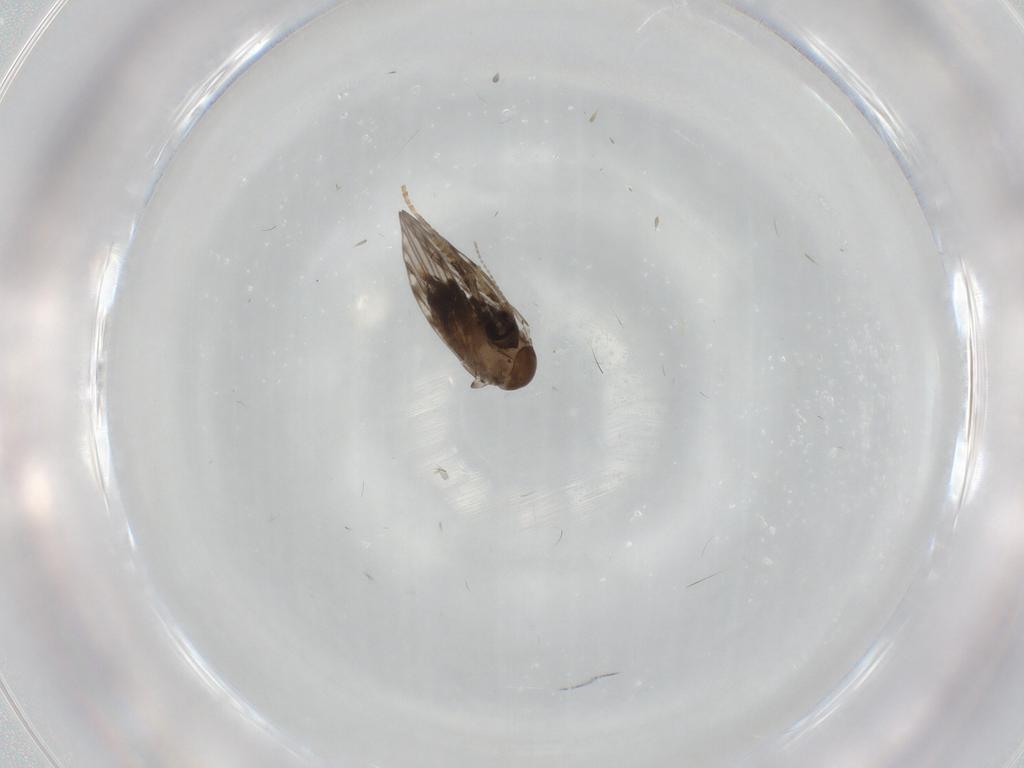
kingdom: Animalia
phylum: Arthropoda
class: Insecta
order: Diptera
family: Psychodidae
